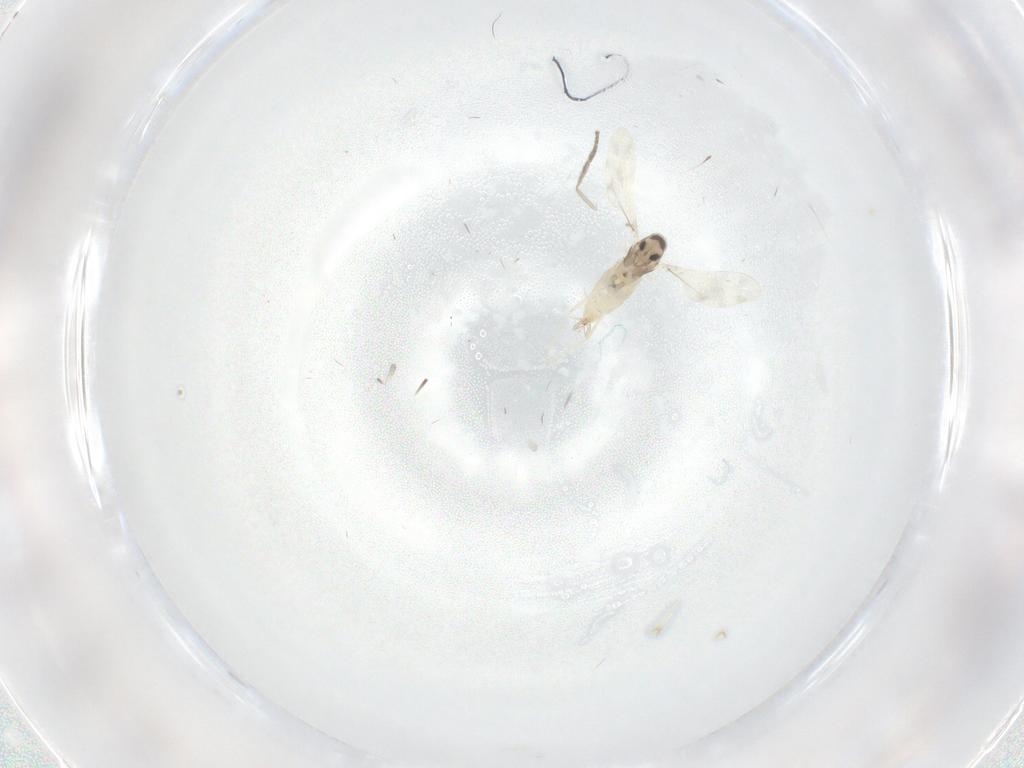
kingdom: Animalia
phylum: Arthropoda
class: Insecta
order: Diptera
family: Psychodidae
